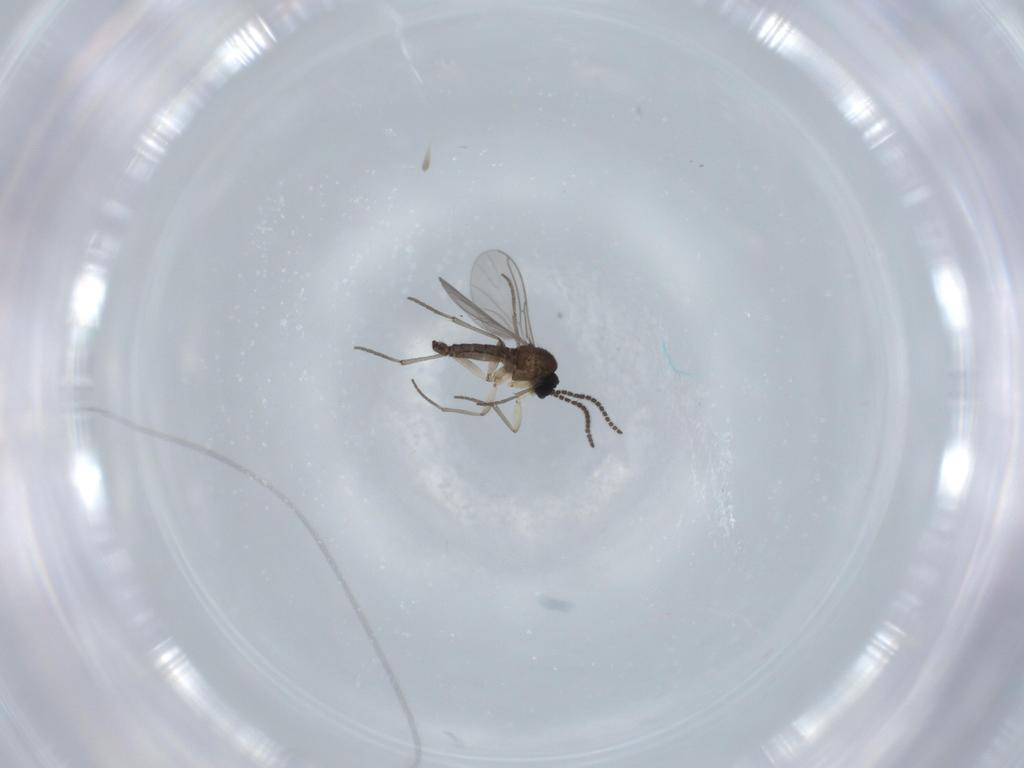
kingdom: Animalia
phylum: Arthropoda
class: Insecta
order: Diptera
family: Sciaridae
